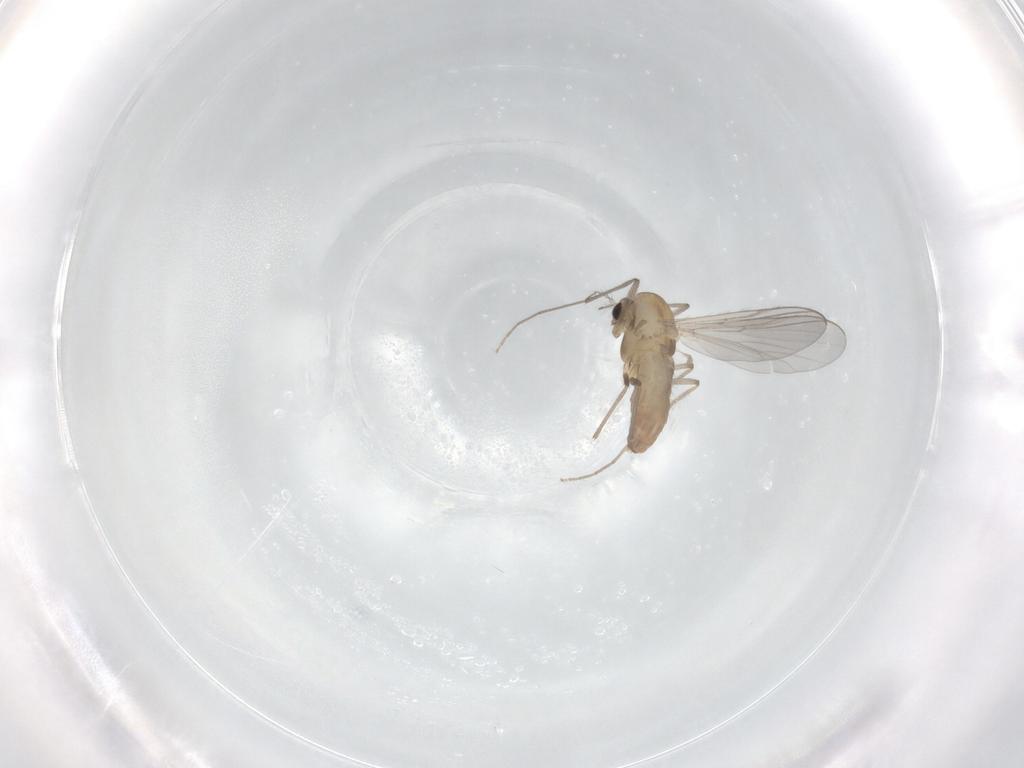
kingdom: Animalia
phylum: Arthropoda
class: Insecta
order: Diptera
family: Chironomidae
